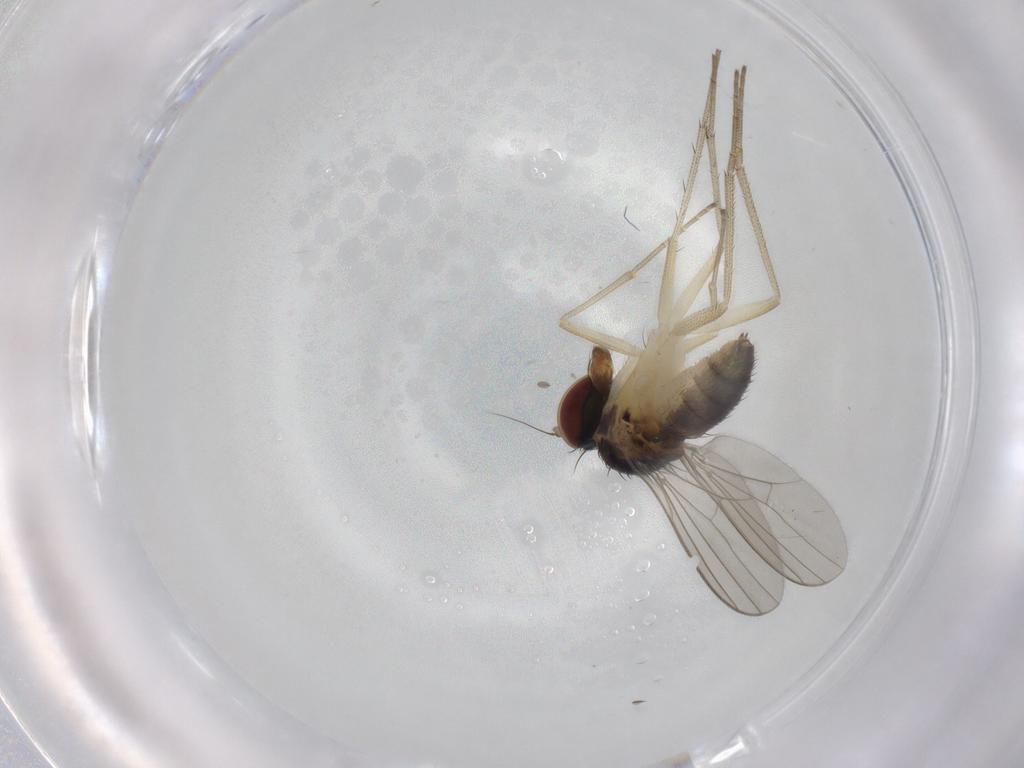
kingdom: Animalia
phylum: Arthropoda
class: Insecta
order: Diptera
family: Dolichopodidae
